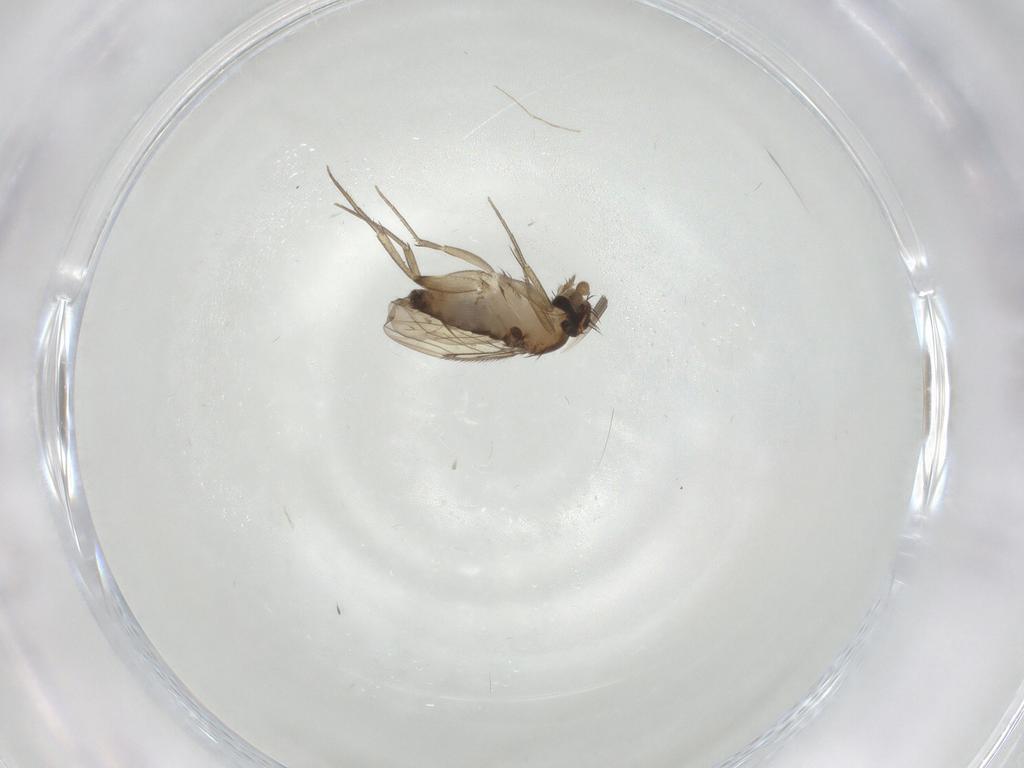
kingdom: Animalia
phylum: Arthropoda
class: Insecta
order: Diptera
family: Phoridae
